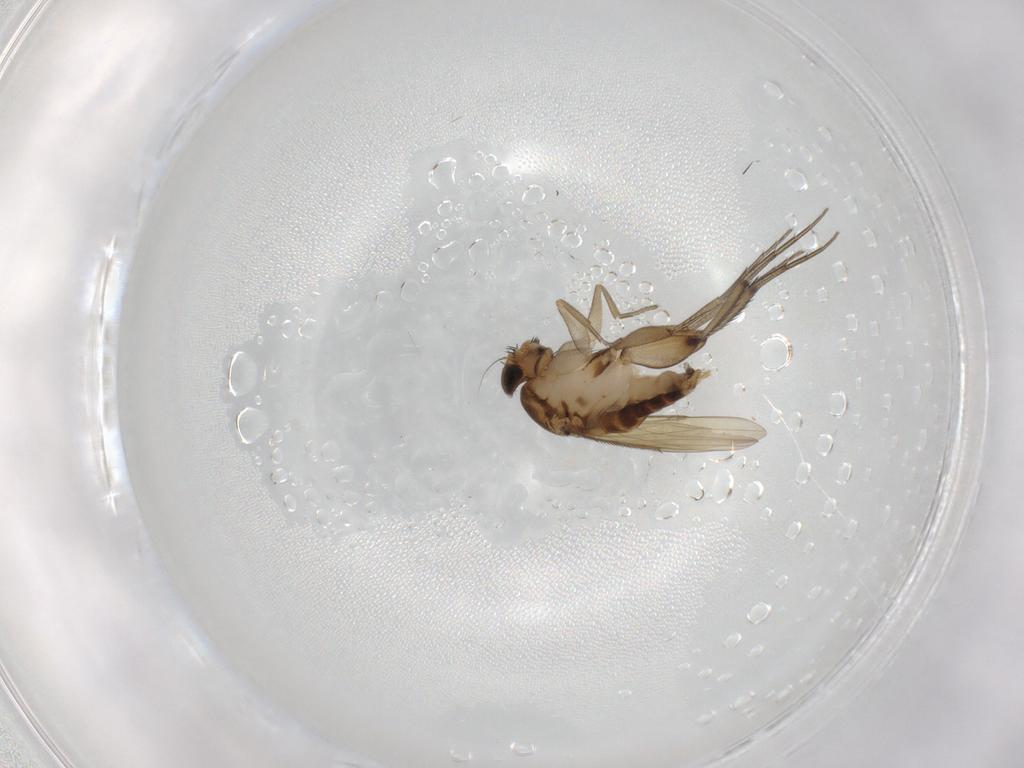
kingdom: Animalia
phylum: Arthropoda
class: Insecta
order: Diptera
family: Phoridae
